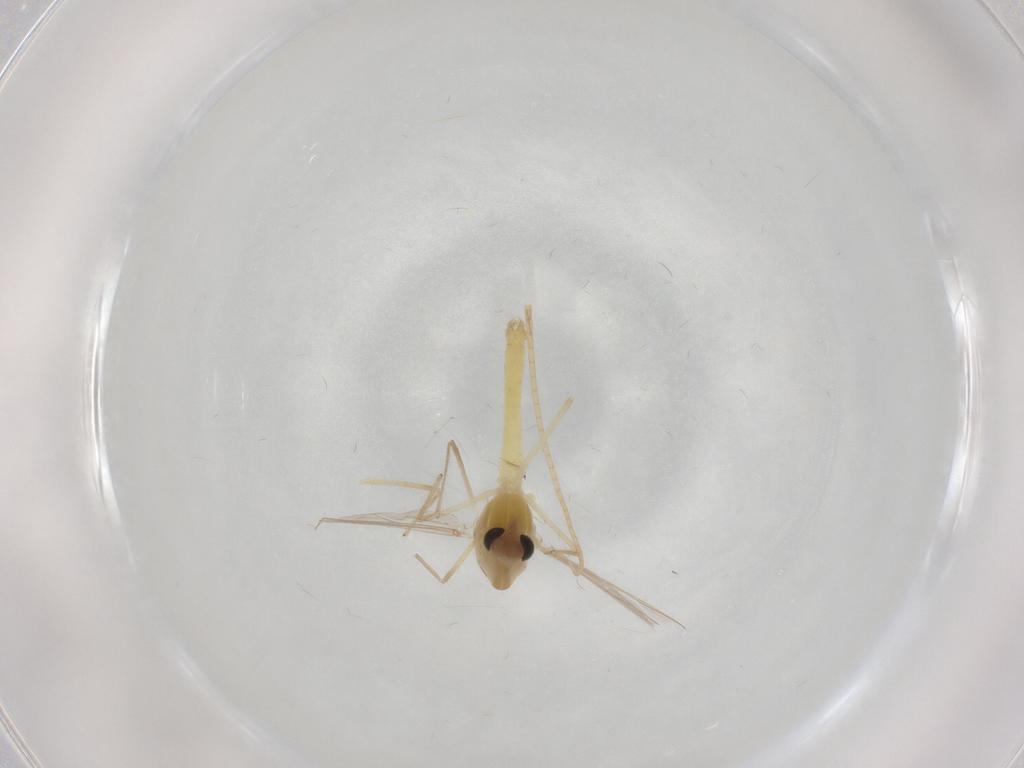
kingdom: Animalia
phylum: Arthropoda
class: Insecta
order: Diptera
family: Chironomidae
